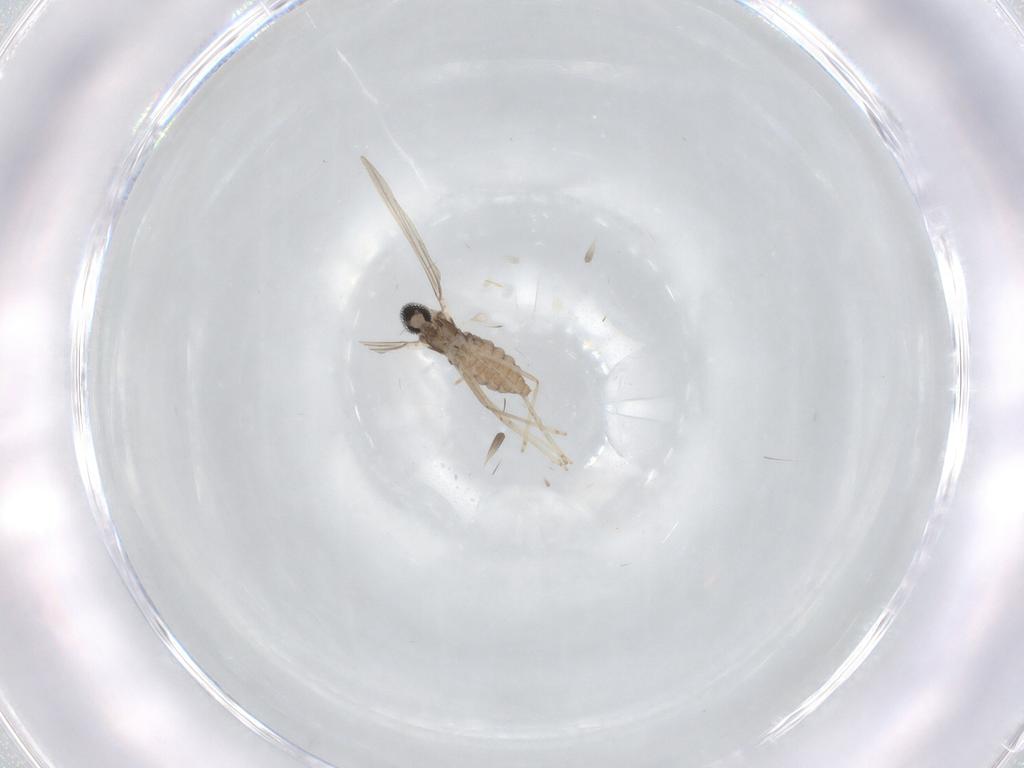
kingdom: Animalia
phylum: Arthropoda
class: Insecta
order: Diptera
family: Cecidomyiidae
